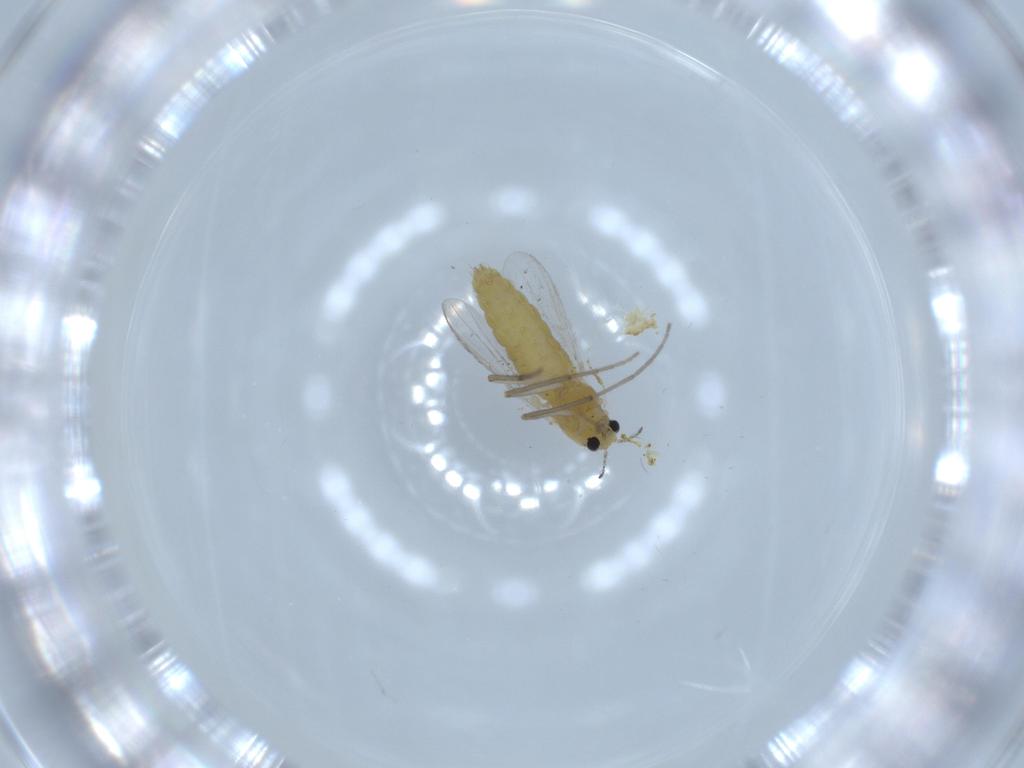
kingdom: Animalia
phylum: Arthropoda
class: Insecta
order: Diptera
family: Chironomidae
